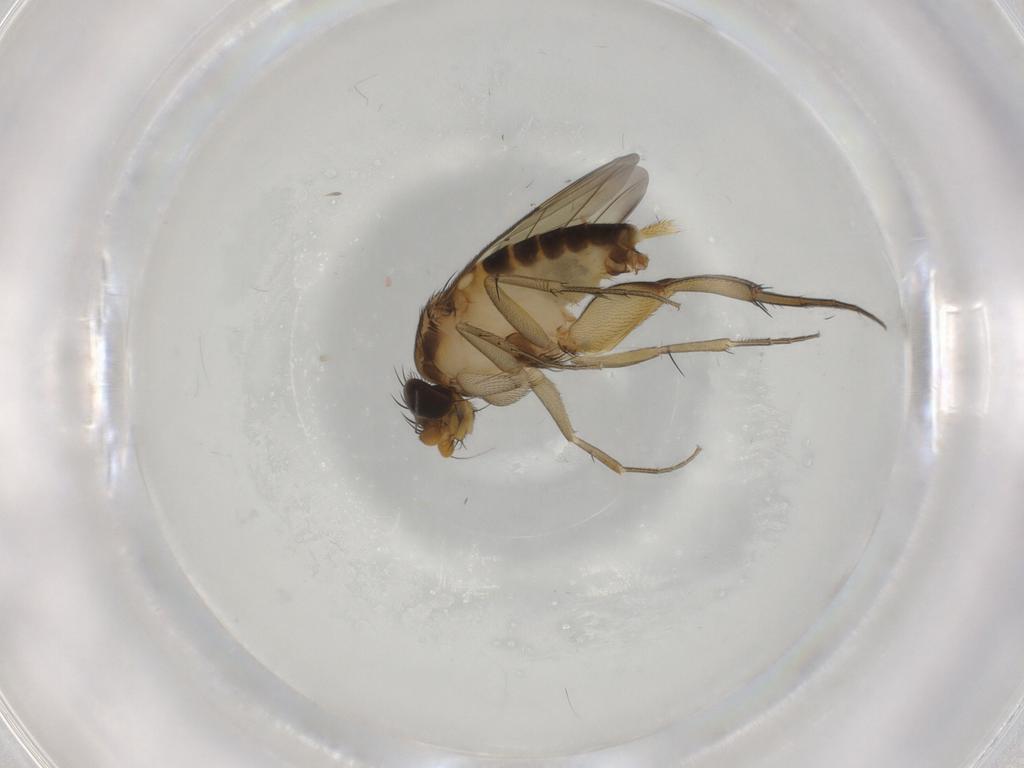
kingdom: Animalia
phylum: Arthropoda
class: Insecta
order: Diptera
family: Phoridae
